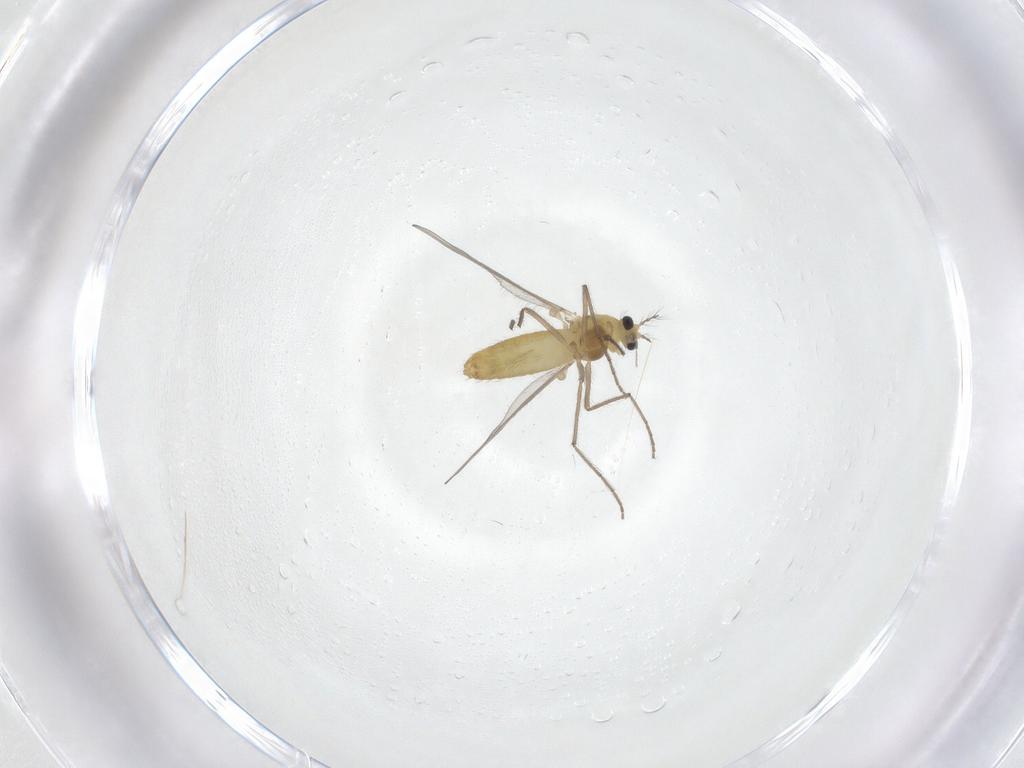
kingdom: Animalia
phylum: Arthropoda
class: Insecta
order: Diptera
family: Chironomidae
